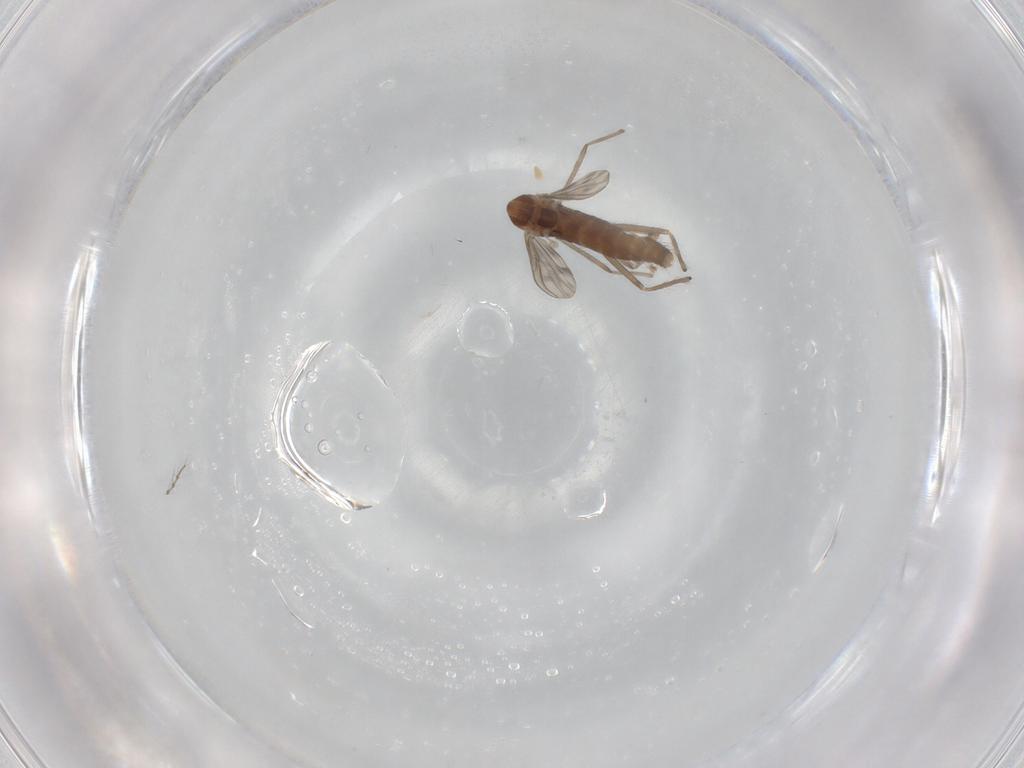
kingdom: Animalia
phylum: Arthropoda
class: Insecta
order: Diptera
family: Chironomidae
